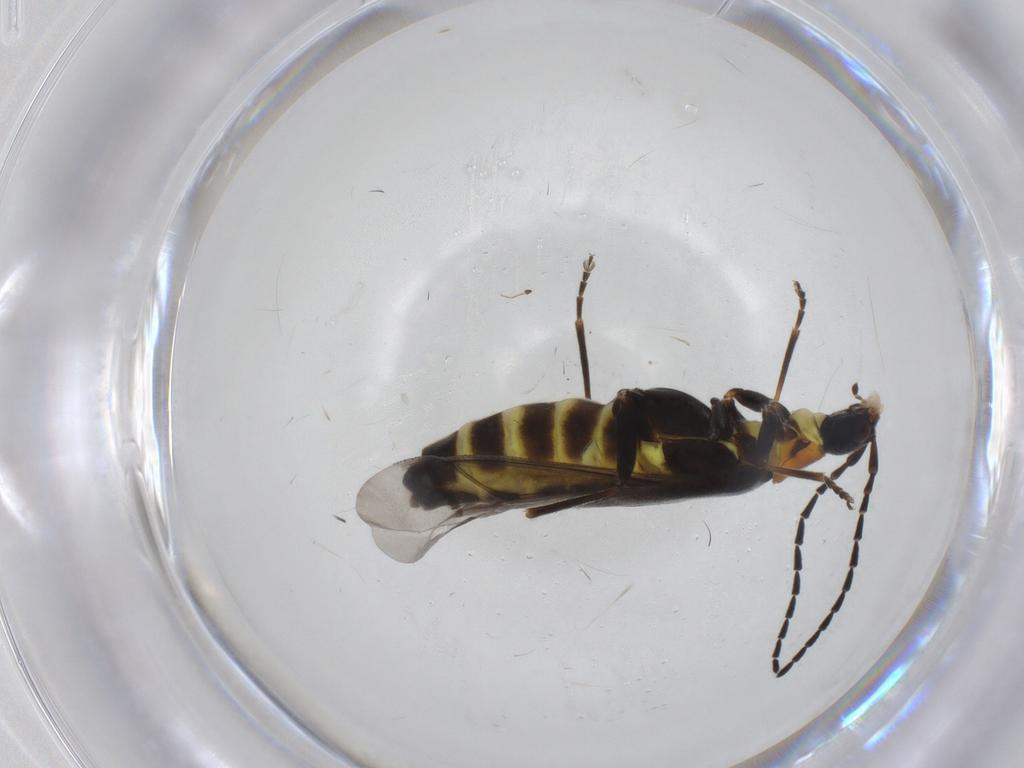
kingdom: Animalia
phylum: Arthropoda
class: Insecta
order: Coleoptera
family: Cantharidae
